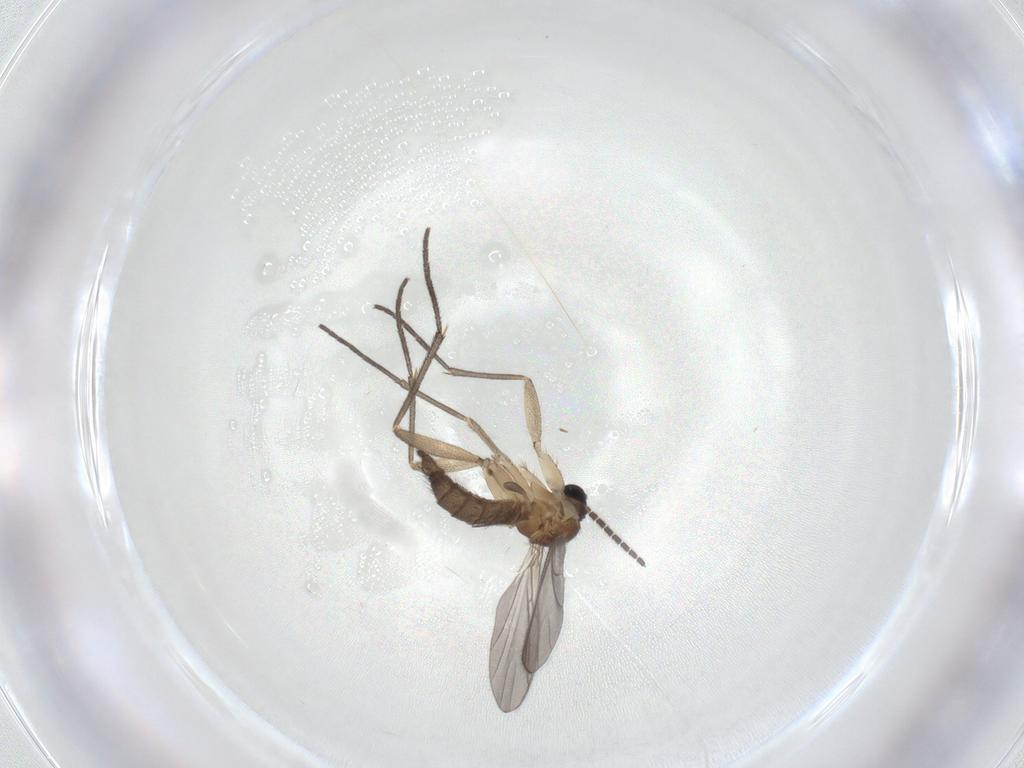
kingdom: Animalia
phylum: Arthropoda
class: Insecta
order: Diptera
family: Sciaridae
